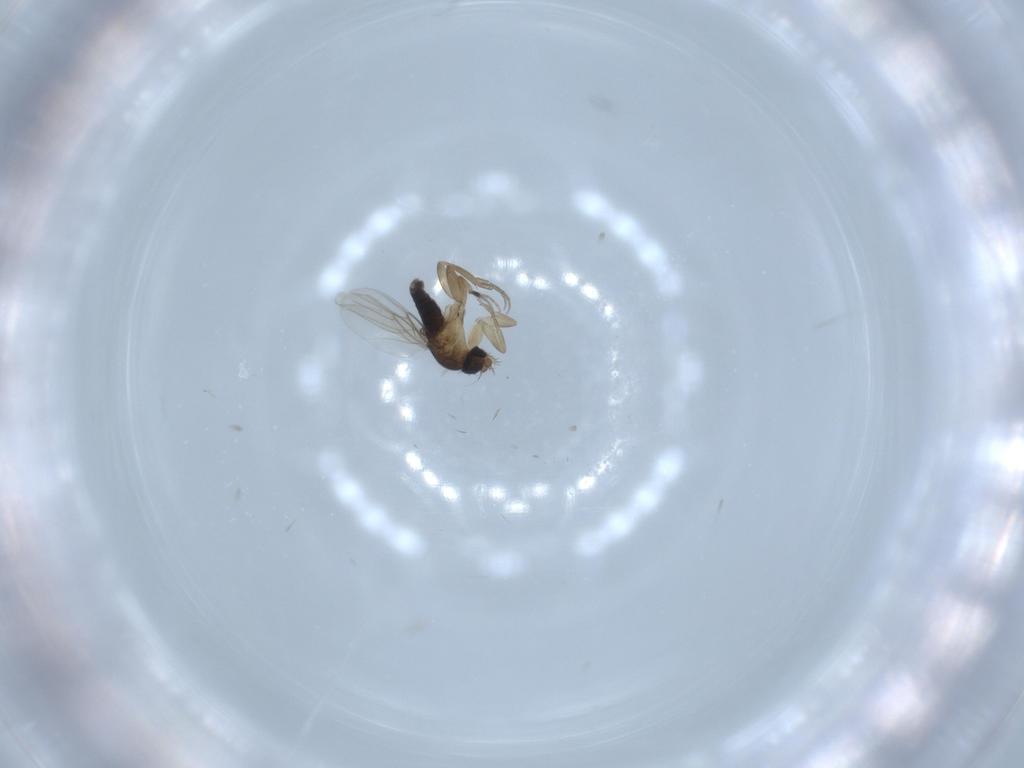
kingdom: Animalia
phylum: Arthropoda
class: Insecta
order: Diptera
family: Phoridae
